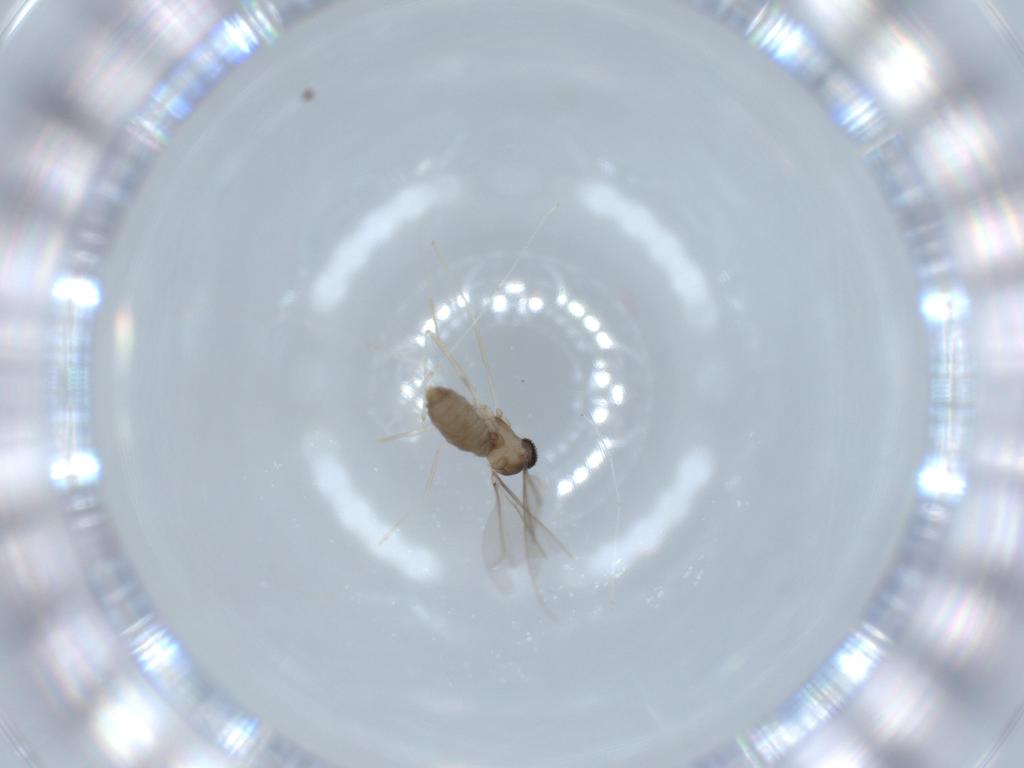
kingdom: Animalia
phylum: Arthropoda
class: Insecta
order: Diptera
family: Cecidomyiidae
